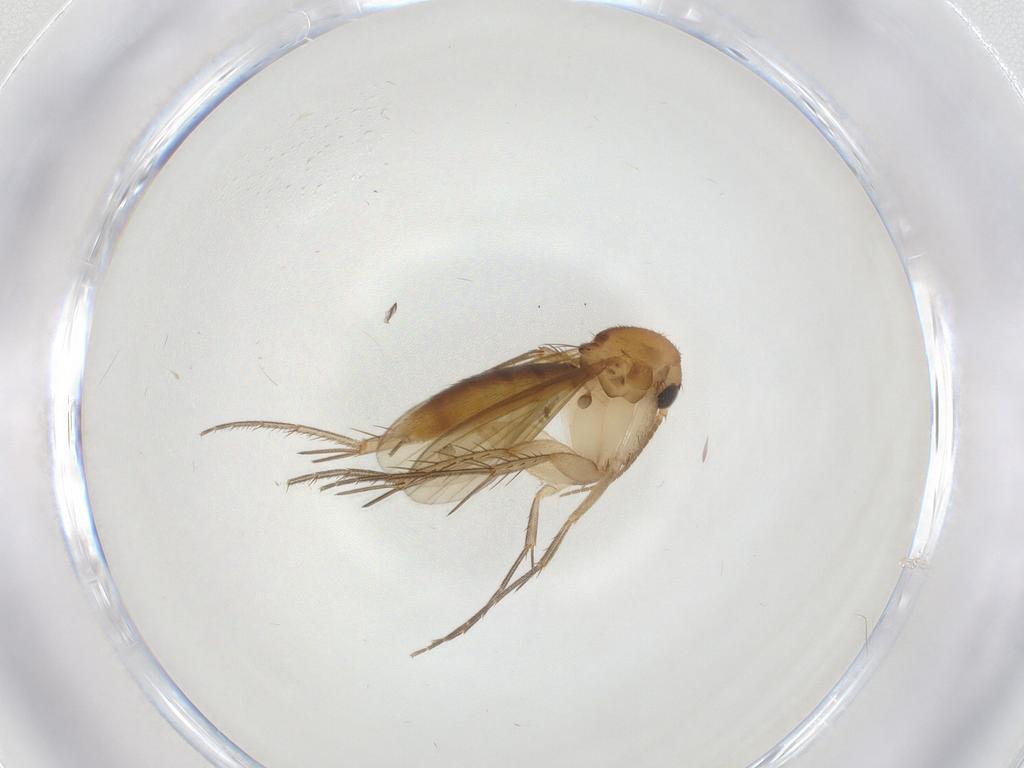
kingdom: Animalia
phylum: Arthropoda
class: Insecta
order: Diptera
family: Mycetophilidae
